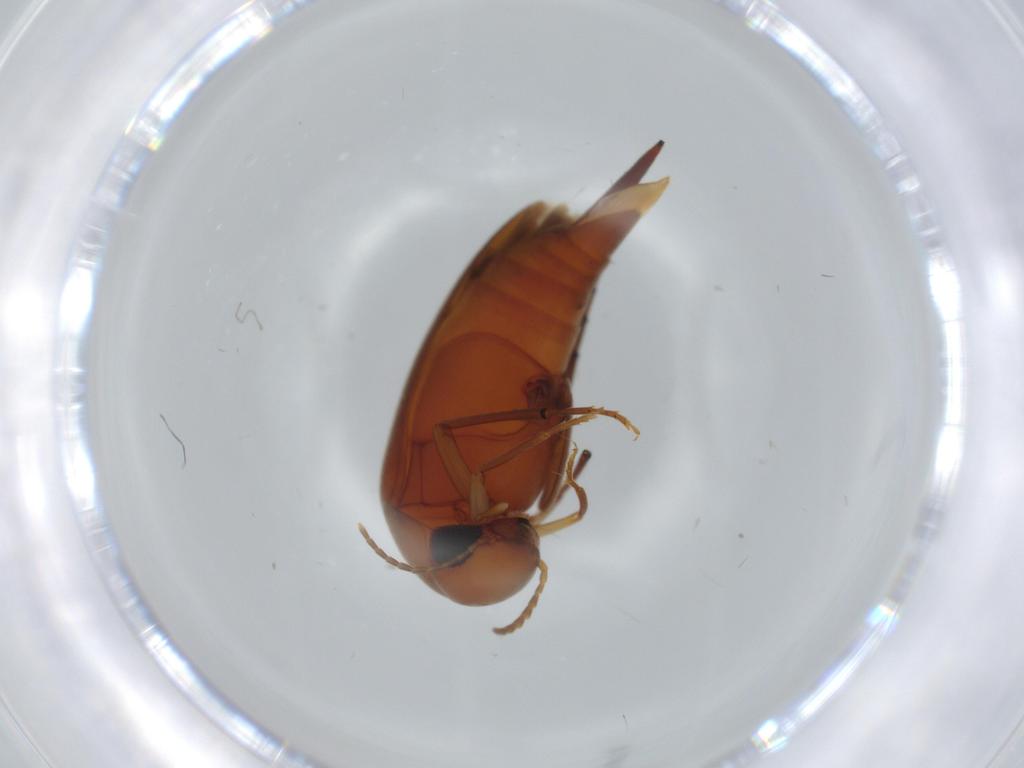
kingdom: Animalia
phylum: Arthropoda
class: Insecta
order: Coleoptera
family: Mordellidae
